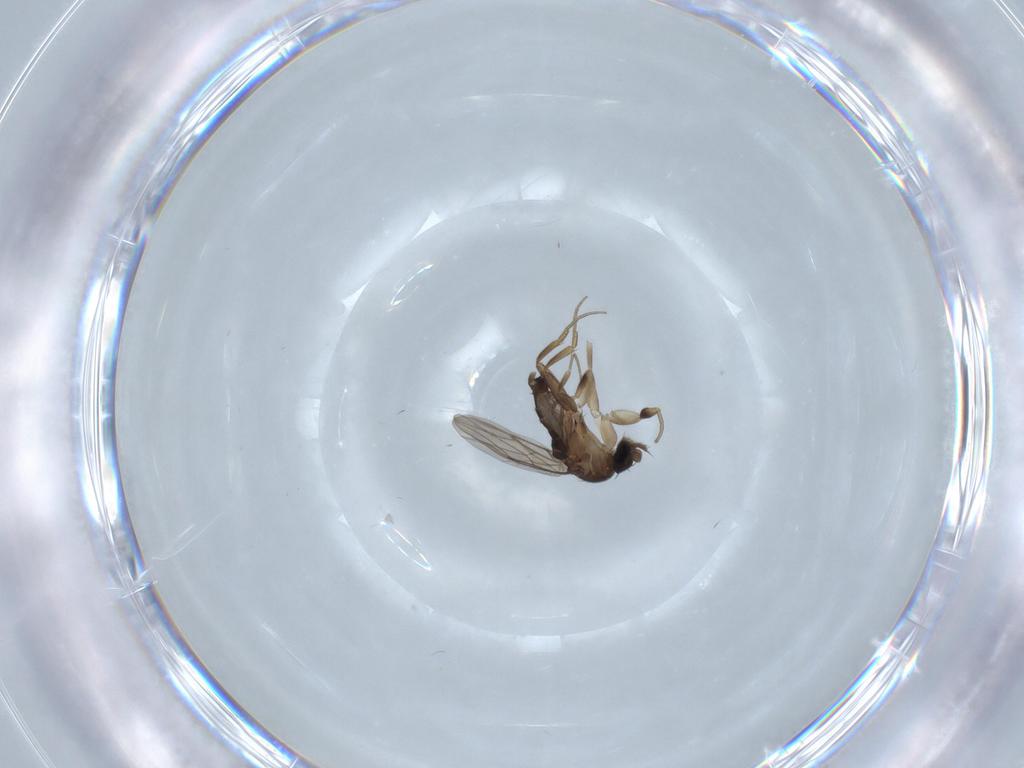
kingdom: Animalia
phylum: Arthropoda
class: Insecta
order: Diptera
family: Phoridae
